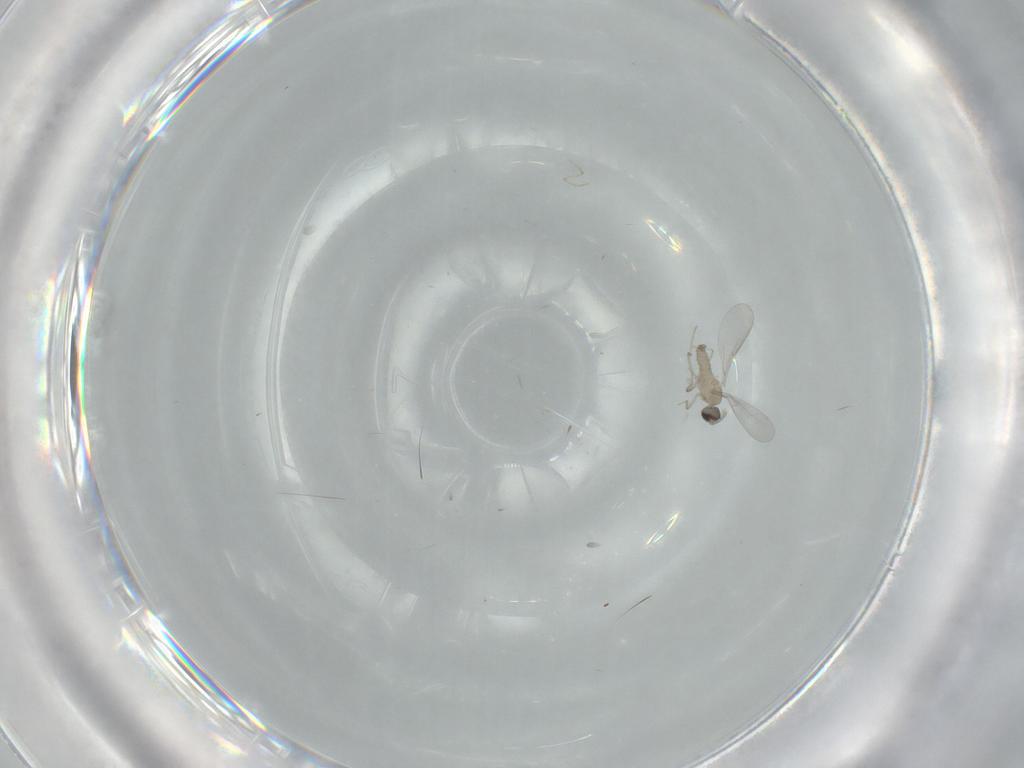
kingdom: Animalia
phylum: Arthropoda
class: Insecta
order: Diptera
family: Cecidomyiidae
